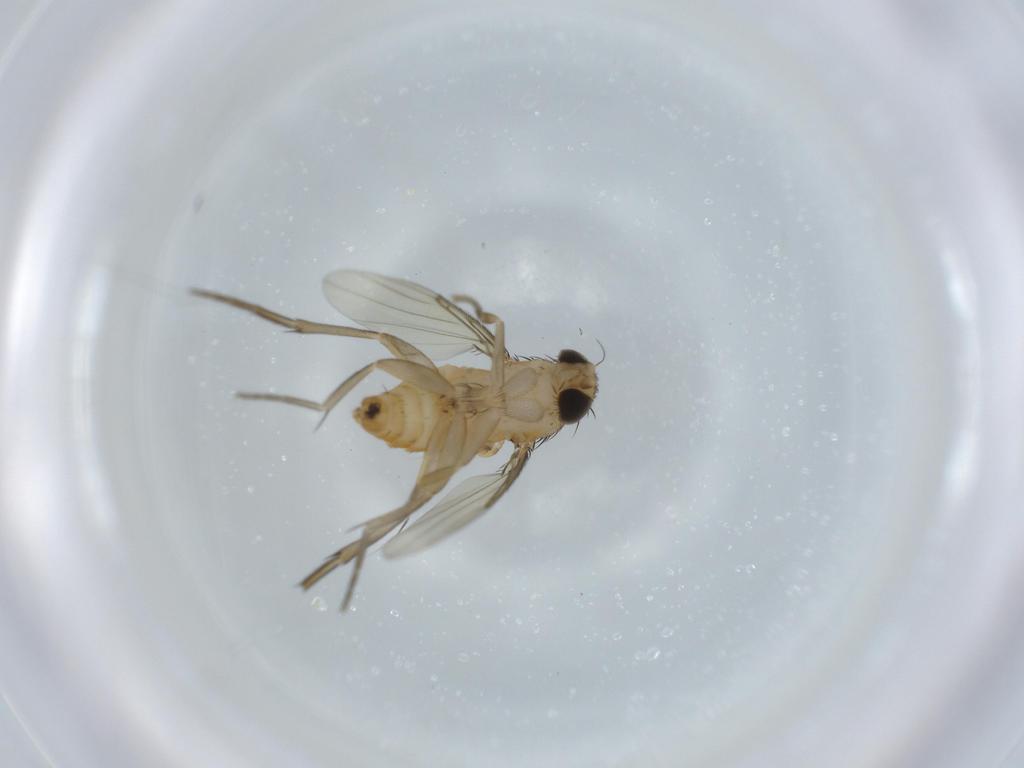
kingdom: Animalia
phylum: Arthropoda
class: Insecta
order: Diptera
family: Phoridae
